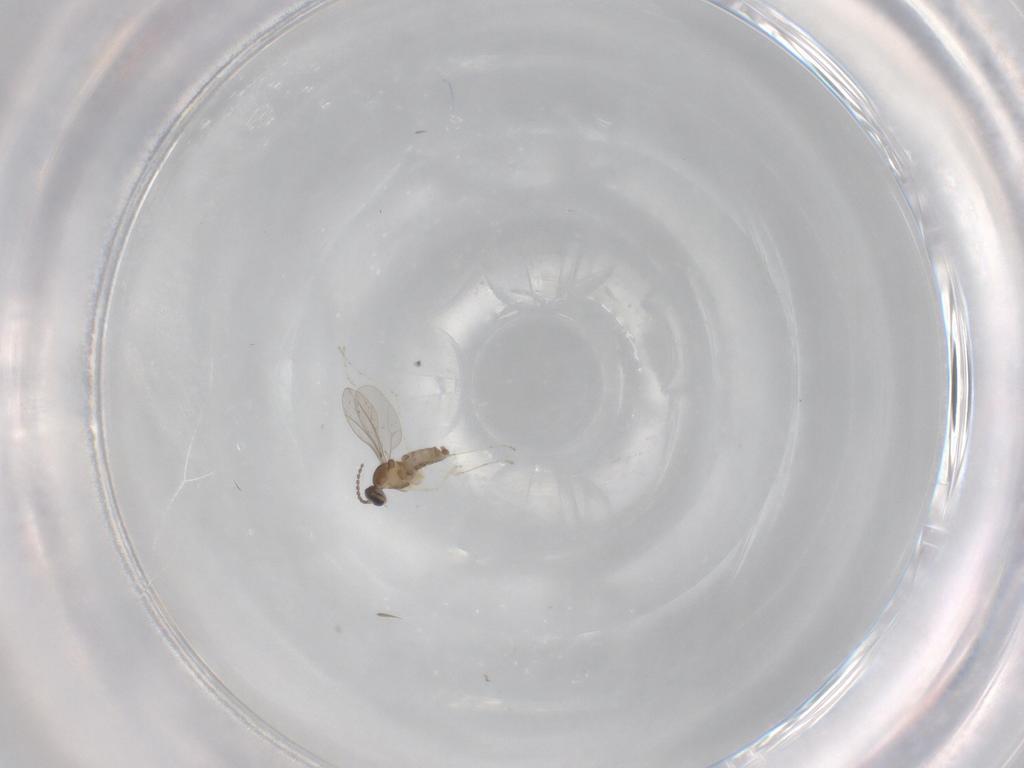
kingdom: Animalia
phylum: Arthropoda
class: Insecta
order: Diptera
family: Cecidomyiidae
